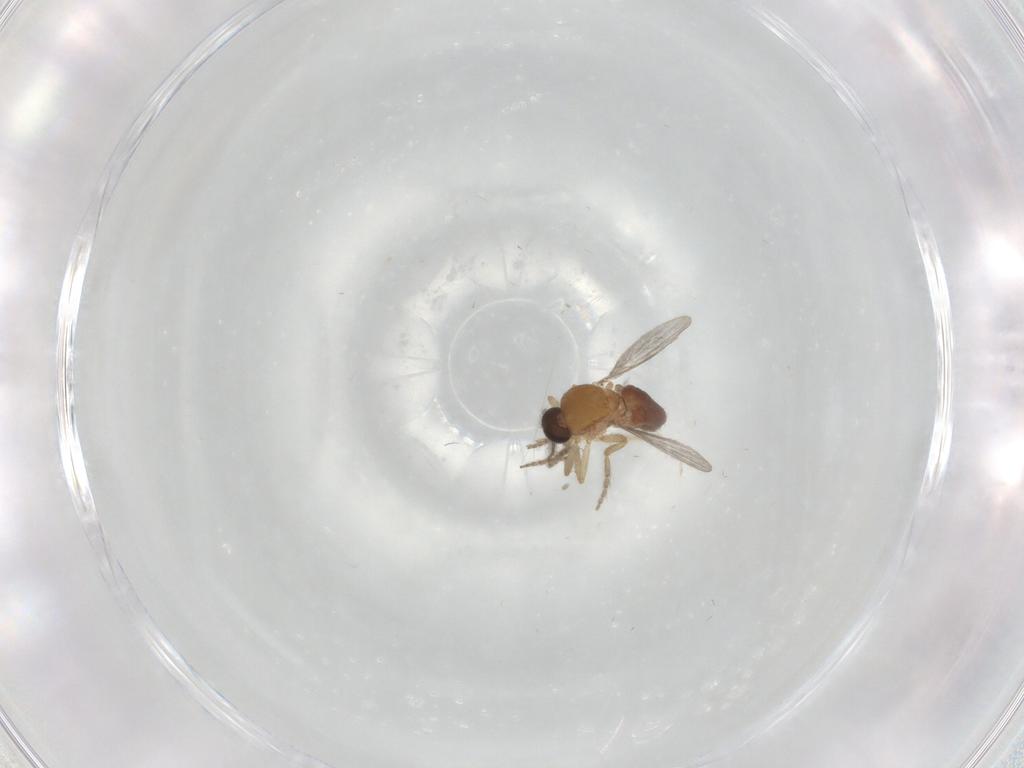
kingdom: Animalia
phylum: Arthropoda
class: Insecta
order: Diptera
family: Ceratopogonidae
